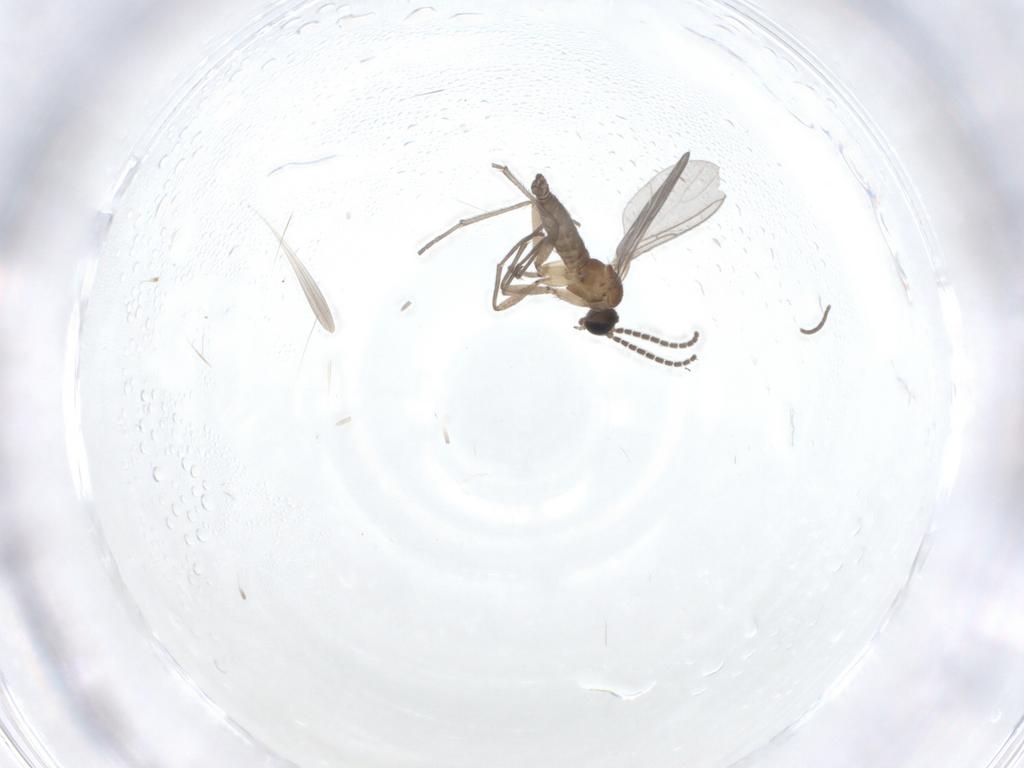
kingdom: Animalia
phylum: Arthropoda
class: Insecta
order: Diptera
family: Sciaridae
